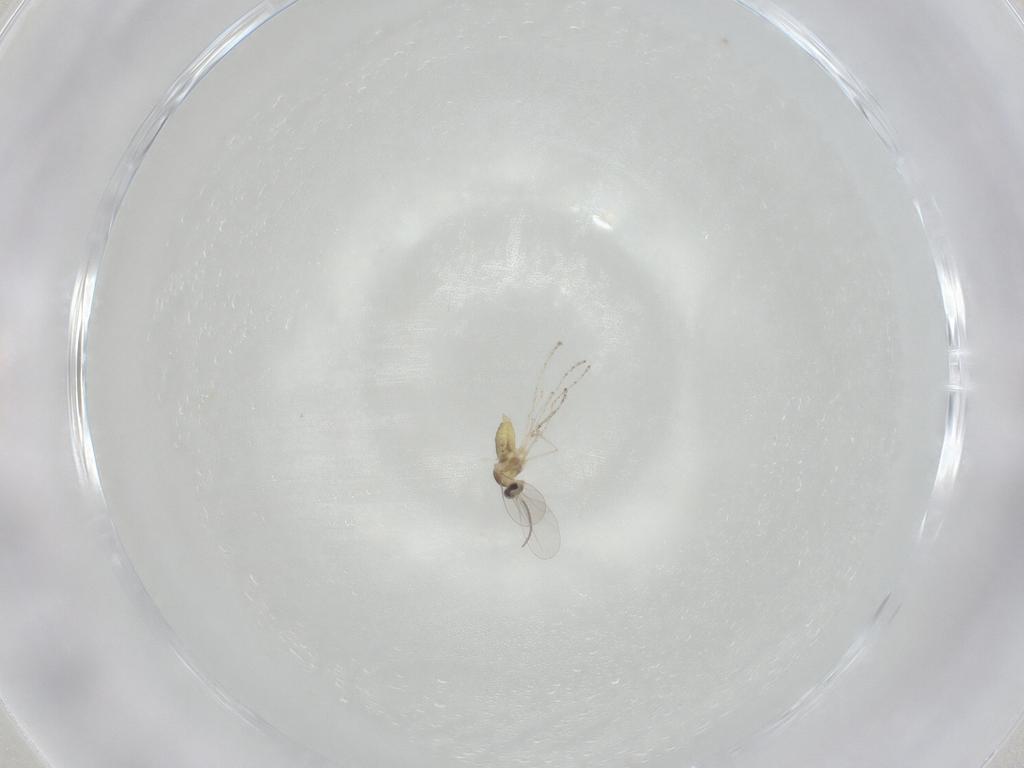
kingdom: Animalia
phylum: Arthropoda
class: Insecta
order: Diptera
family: Cecidomyiidae
